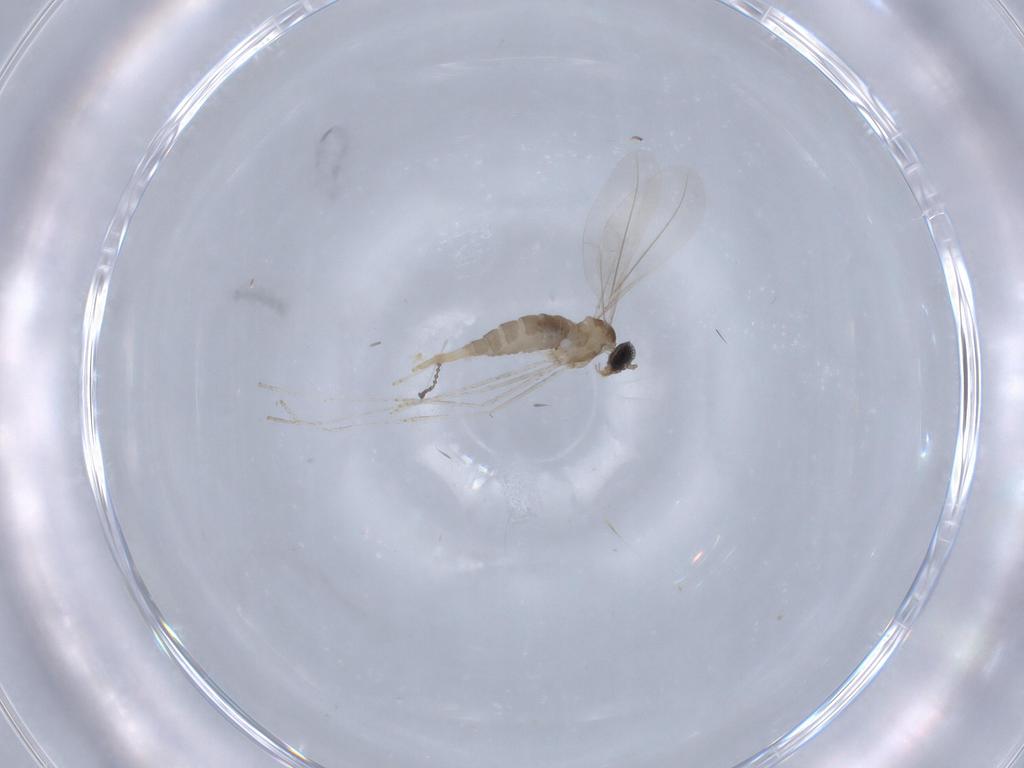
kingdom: Animalia
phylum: Arthropoda
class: Insecta
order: Diptera
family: Cecidomyiidae
